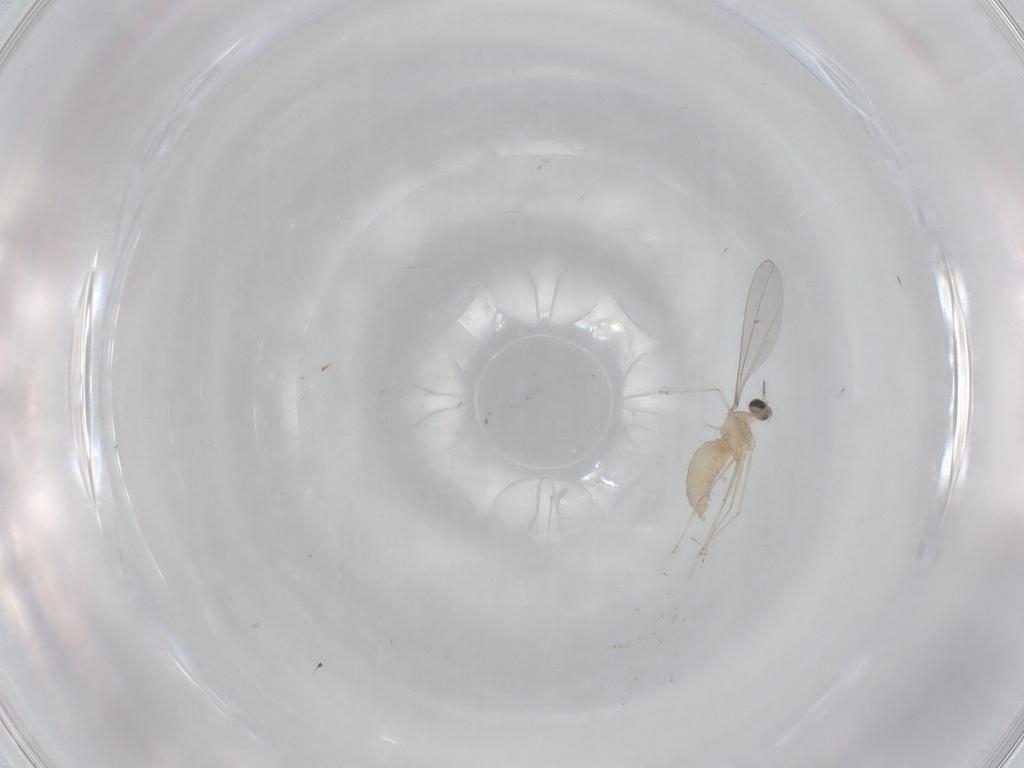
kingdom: Animalia
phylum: Arthropoda
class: Insecta
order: Diptera
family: Cecidomyiidae
